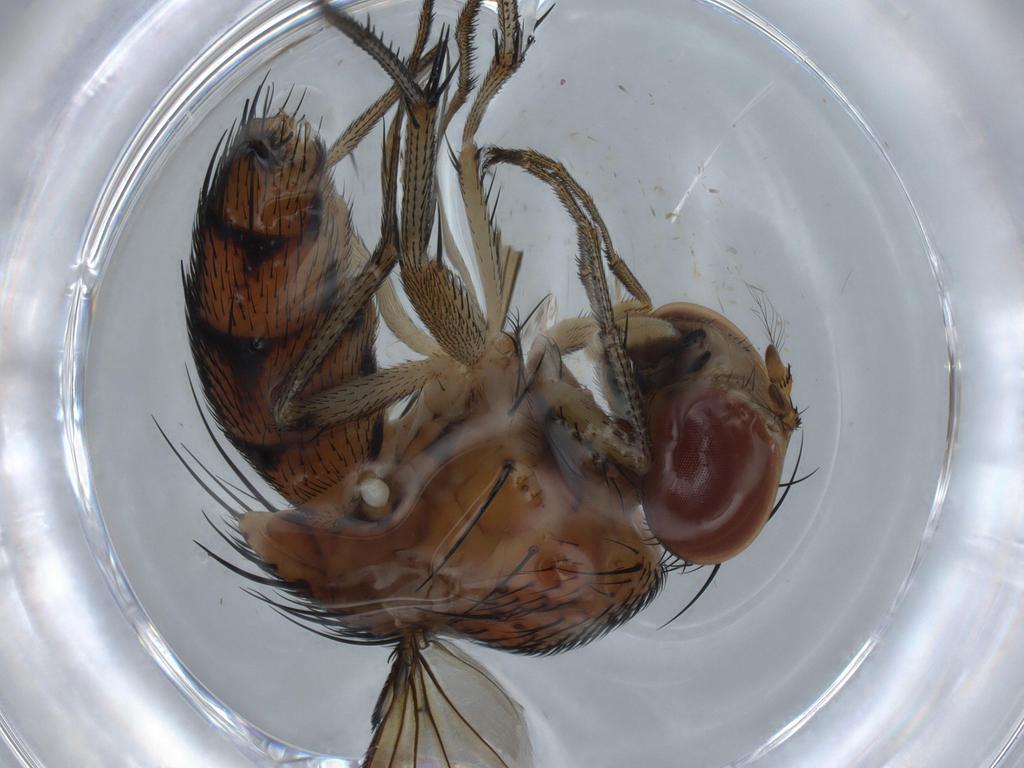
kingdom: Animalia
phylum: Arthropoda
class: Insecta
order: Diptera
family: Chironomidae
